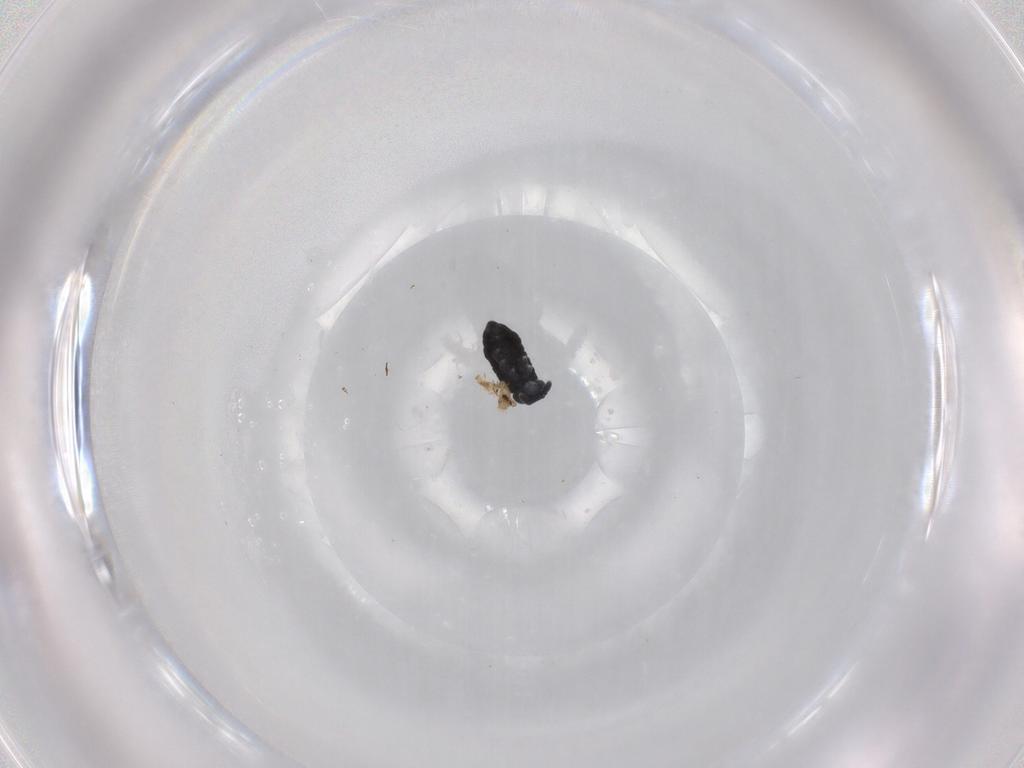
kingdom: Animalia
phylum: Arthropoda
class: Collembola
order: Poduromorpha
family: Hypogastruridae
